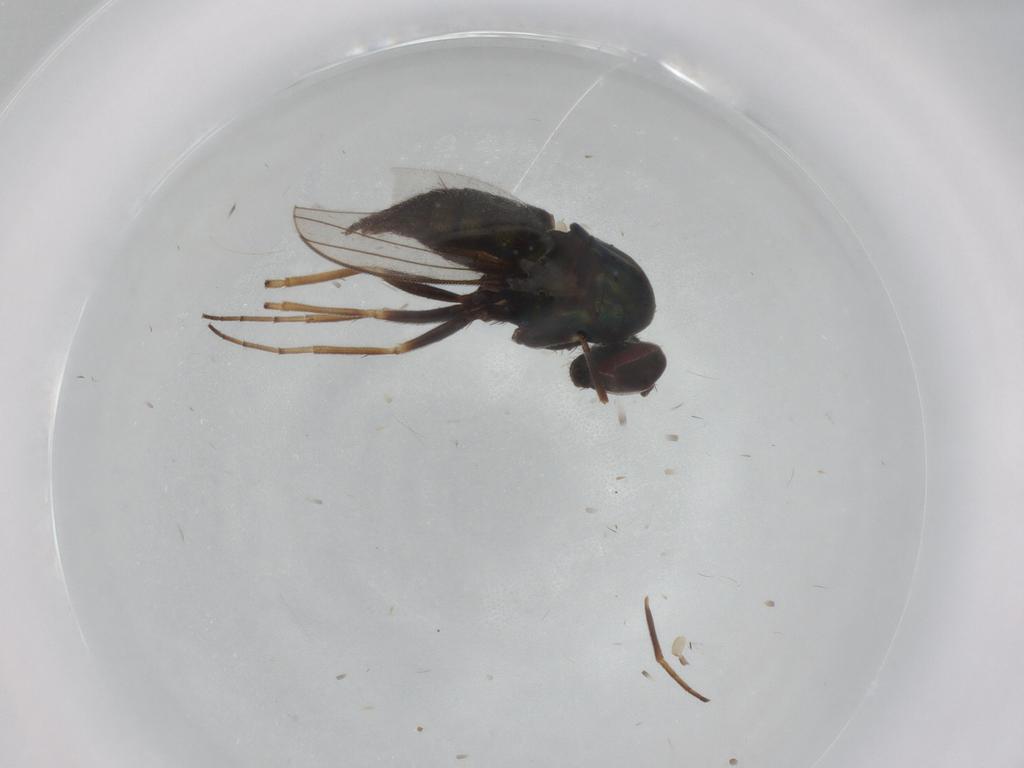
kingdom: Animalia
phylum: Arthropoda
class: Insecta
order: Diptera
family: Dolichopodidae
